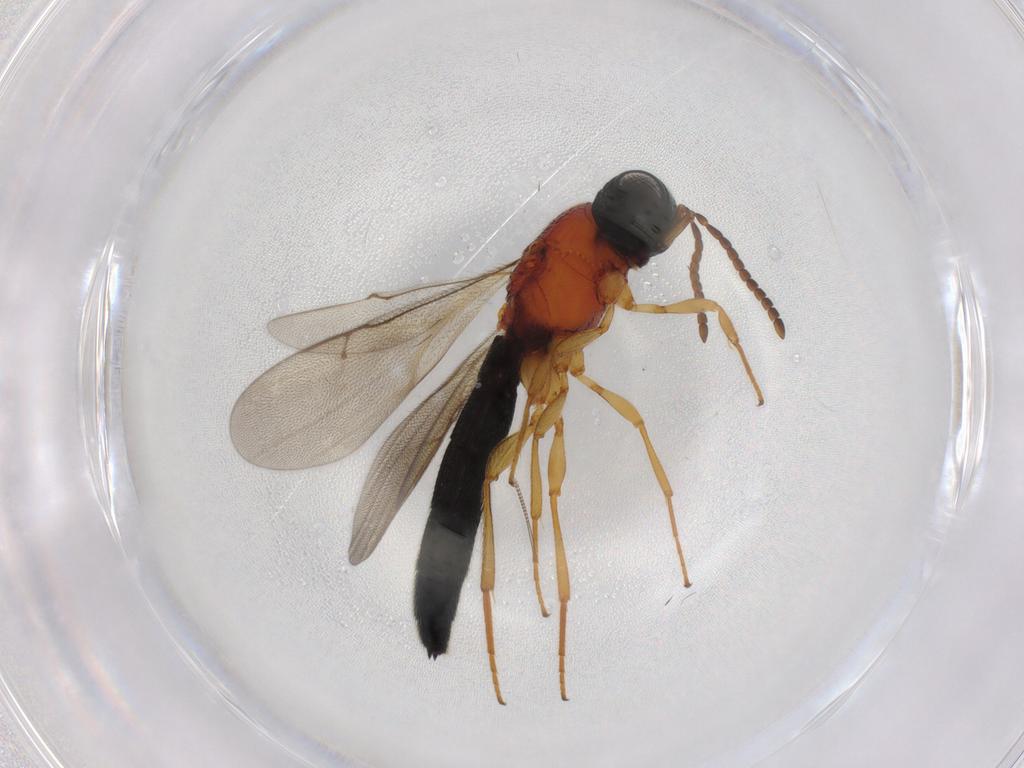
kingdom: Animalia
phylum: Arthropoda
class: Insecta
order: Hymenoptera
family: Scelionidae
